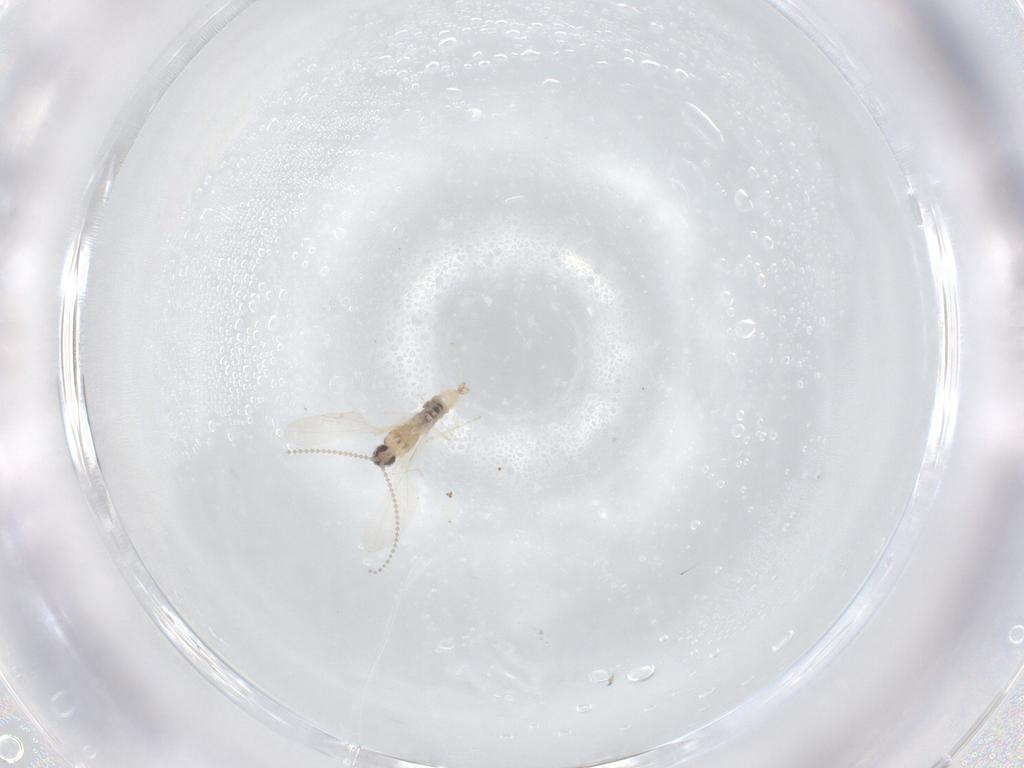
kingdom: Animalia
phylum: Arthropoda
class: Insecta
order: Diptera
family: Sciaridae
